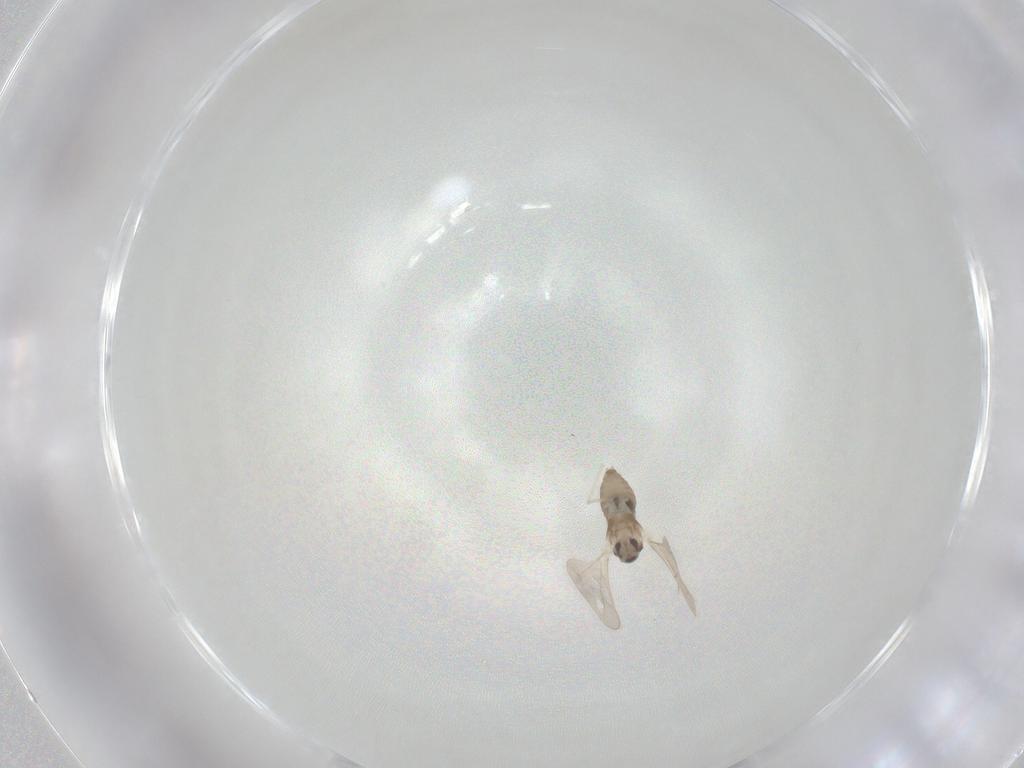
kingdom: Animalia
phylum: Arthropoda
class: Insecta
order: Diptera
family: Cecidomyiidae
